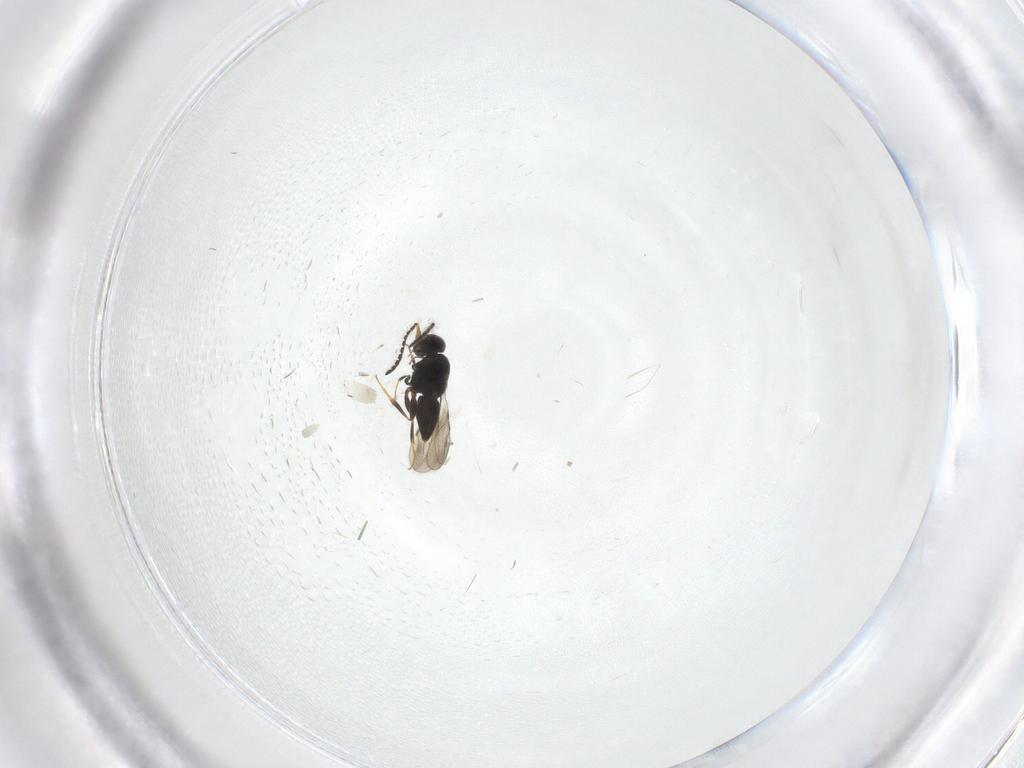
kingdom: Animalia
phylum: Arthropoda
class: Insecta
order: Hymenoptera
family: Ceraphronidae
